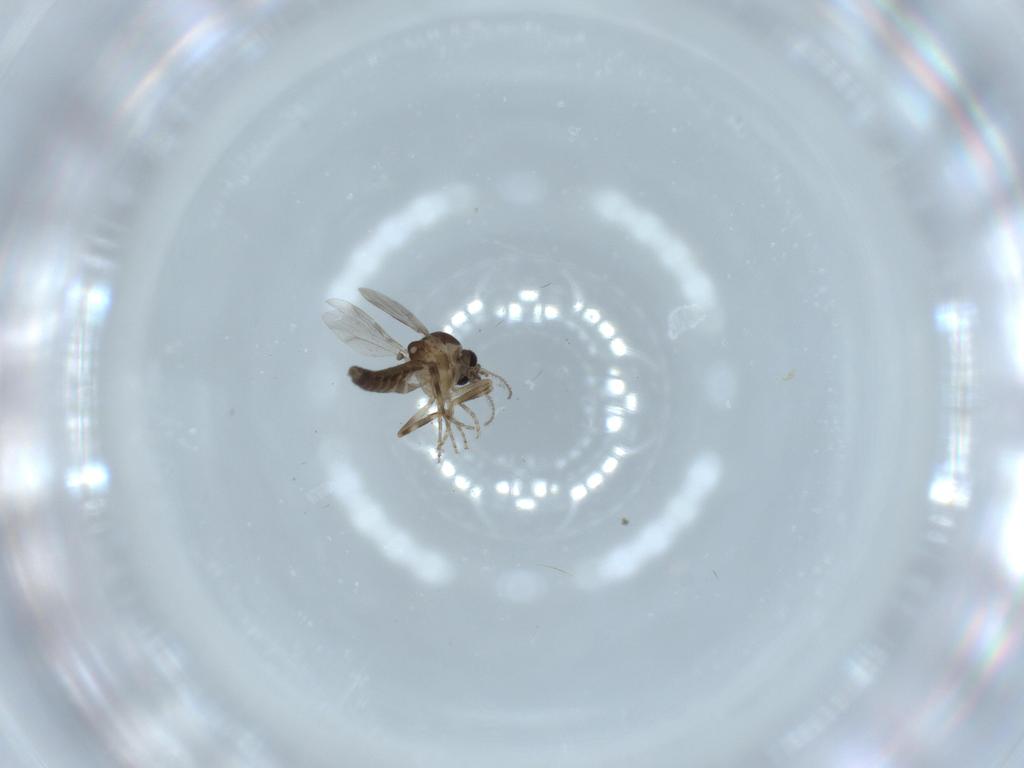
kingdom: Animalia
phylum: Arthropoda
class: Insecta
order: Diptera
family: Ceratopogonidae
